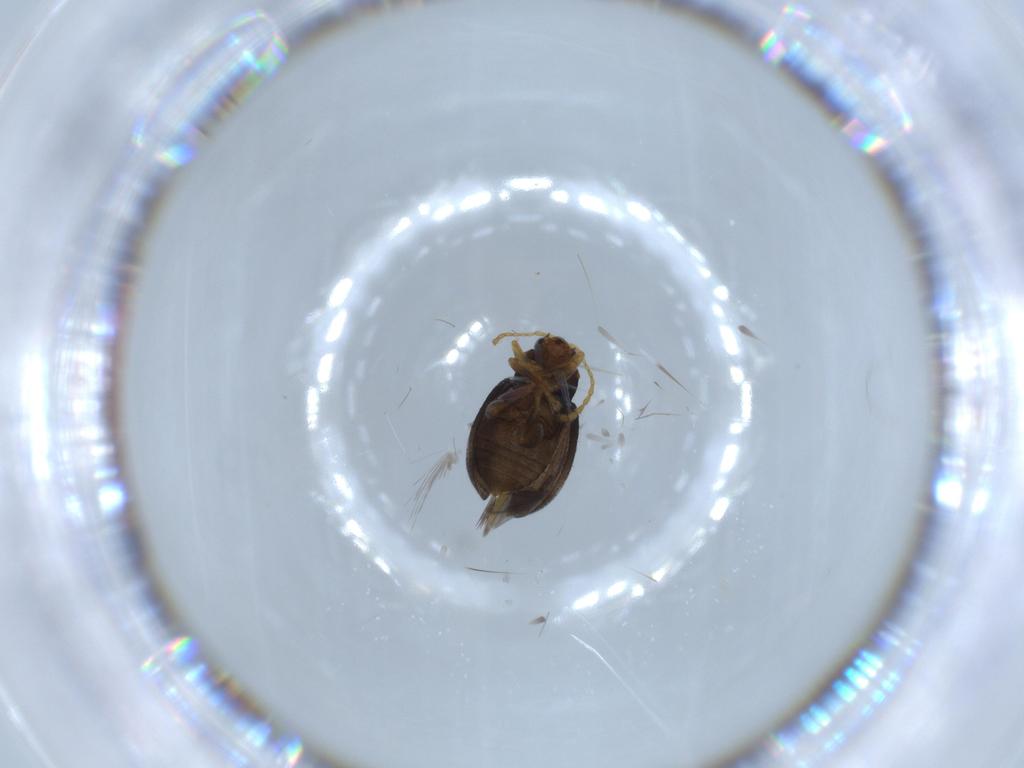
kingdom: Animalia
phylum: Arthropoda
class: Insecta
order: Coleoptera
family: Chrysomelidae
